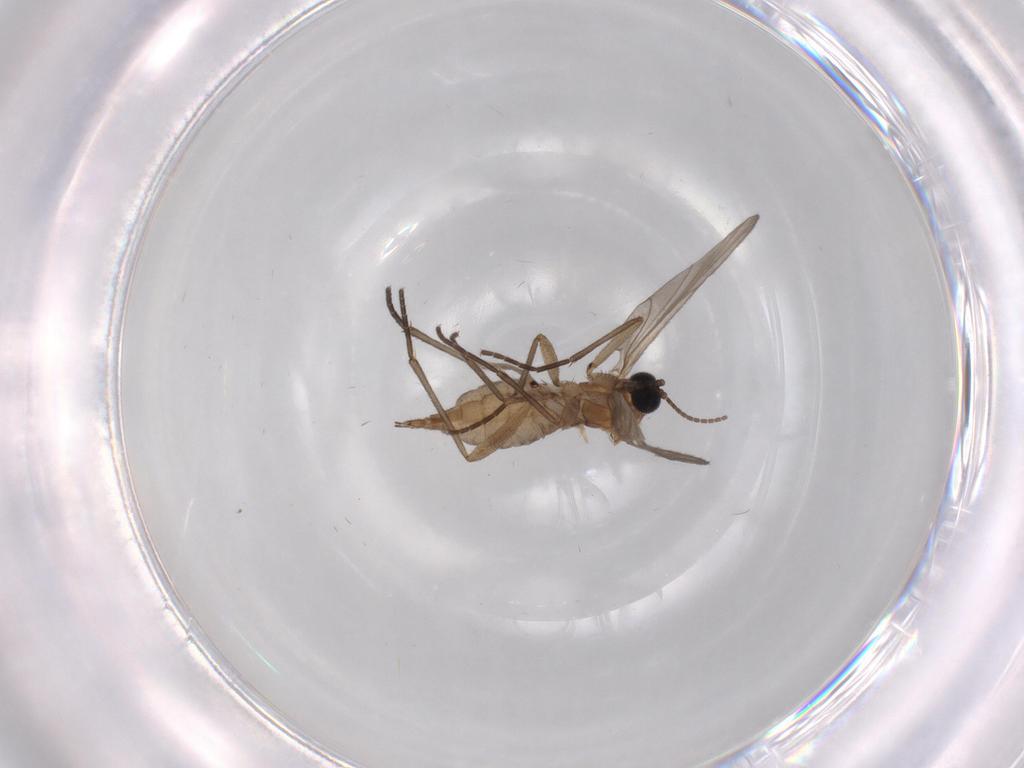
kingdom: Animalia
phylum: Arthropoda
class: Insecta
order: Diptera
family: Sciaridae
